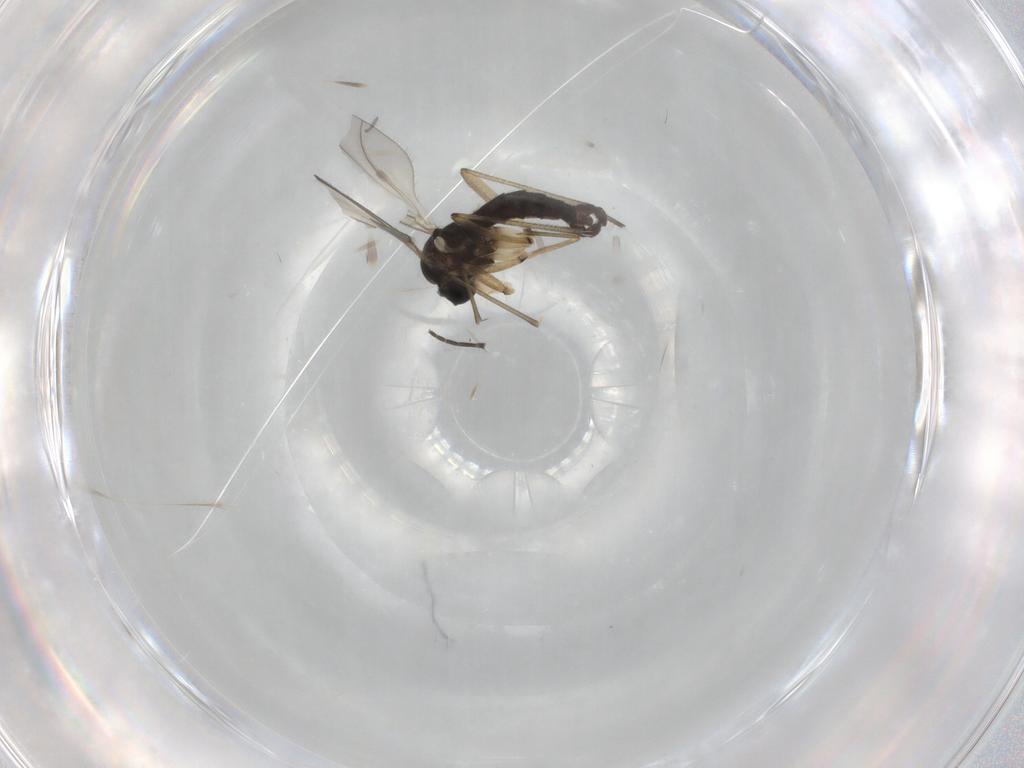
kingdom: Animalia
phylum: Arthropoda
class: Insecta
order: Diptera
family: Sciaridae
